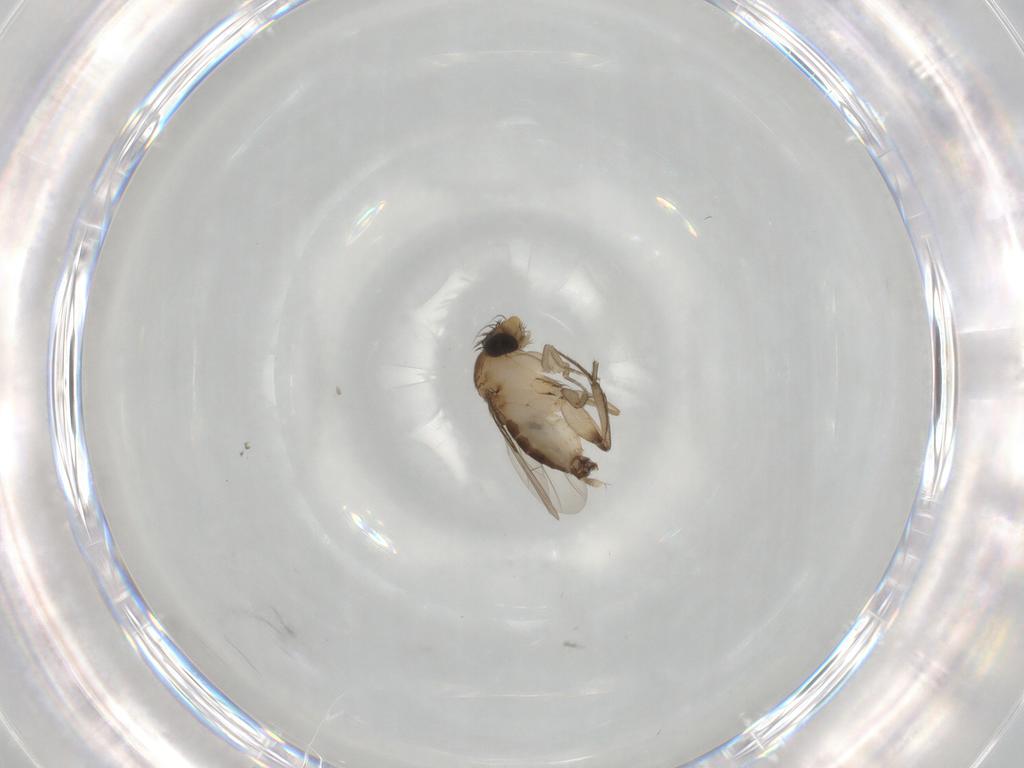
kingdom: Animalia
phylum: Arthropoda
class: Insecta
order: Diptera
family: Phoridae
